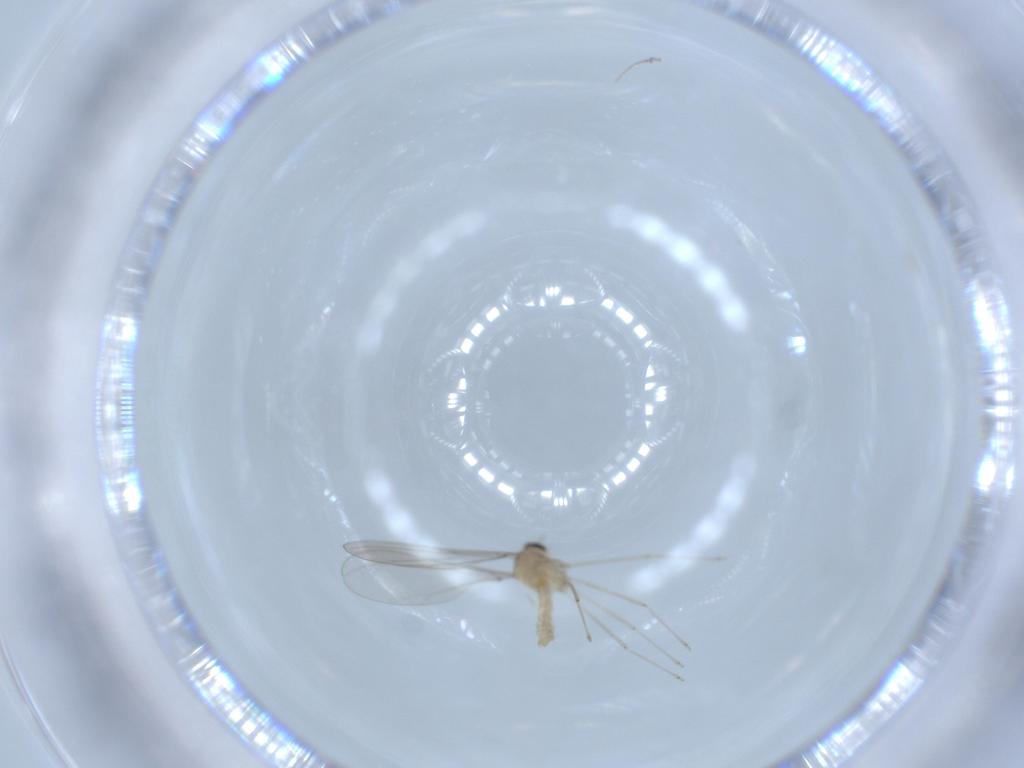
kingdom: Animalia
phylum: Arthropoda
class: Insecta
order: Diptera
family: Cecidomyiidae
